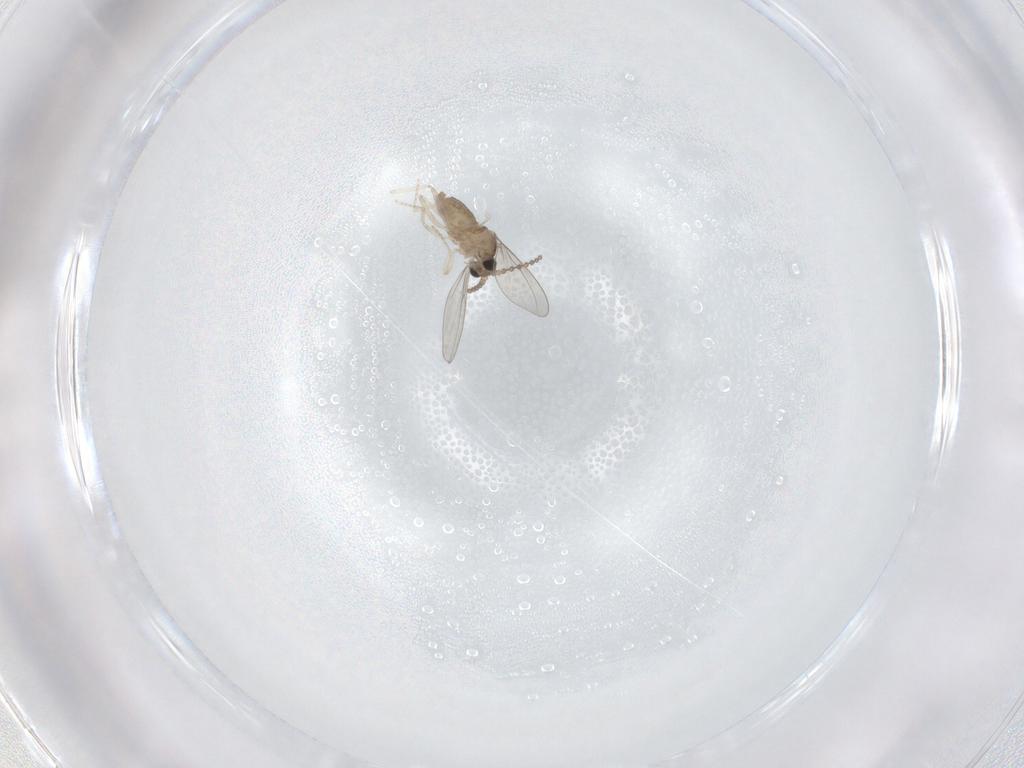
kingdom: Animalia
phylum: Arthropoda
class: Insecta
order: Diptera
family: Cecidomyiidae
